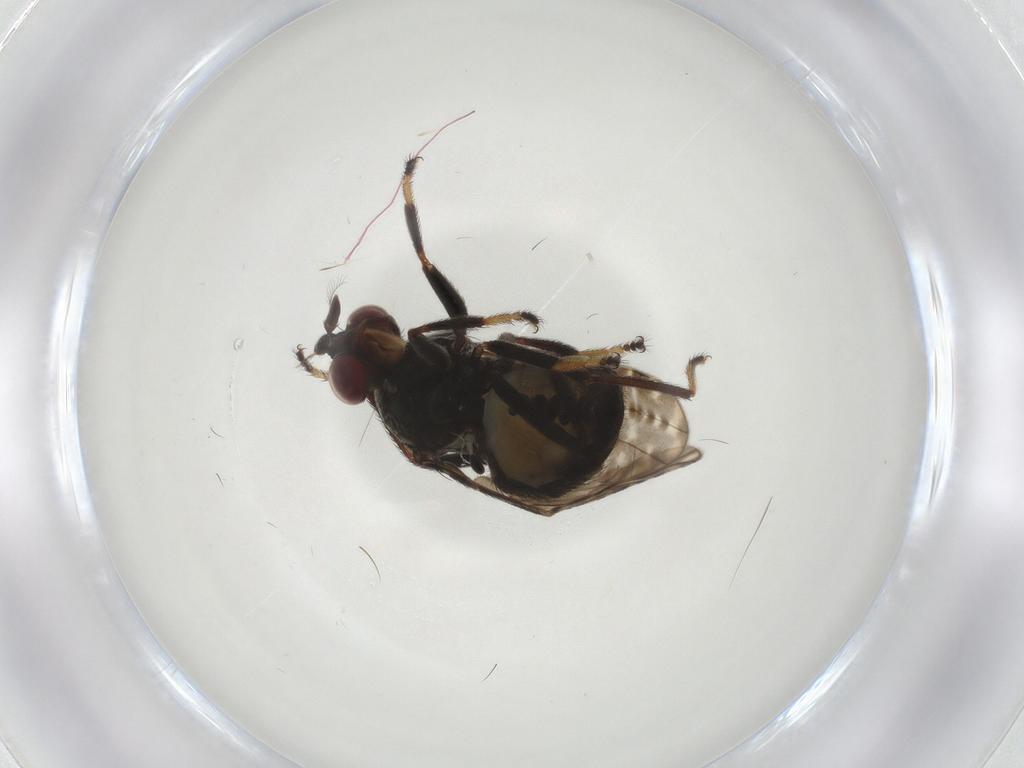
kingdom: Animalia
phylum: Arthropoda
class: Insecta
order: Diptera
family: Ephydridae
